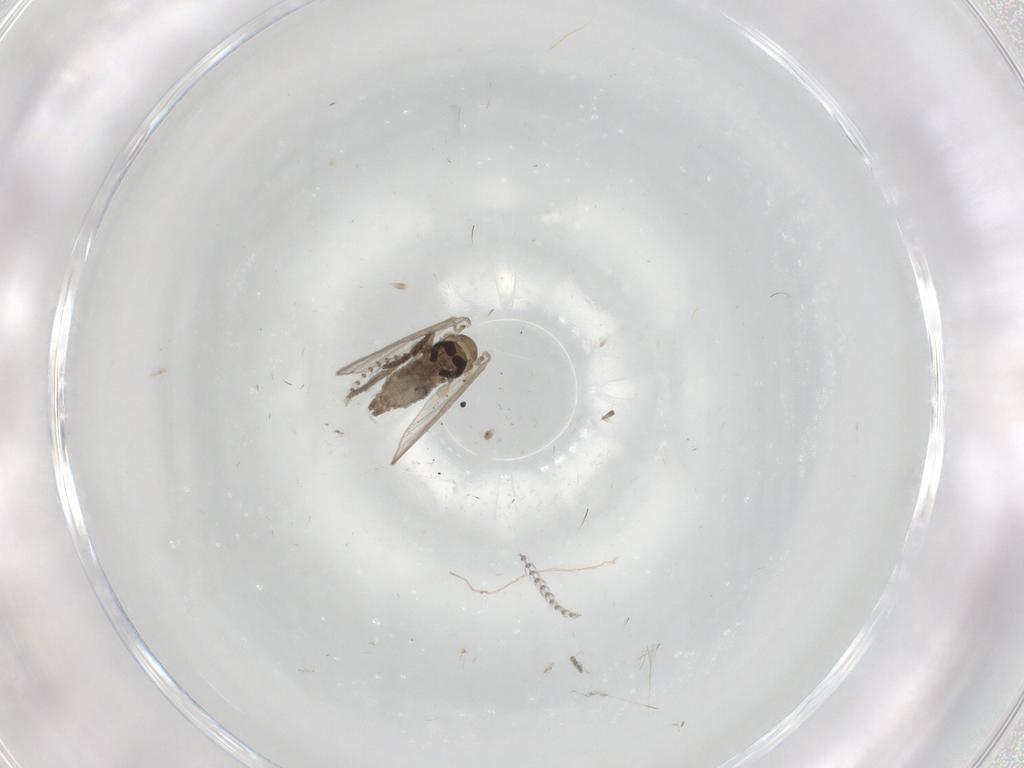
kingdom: Animalia
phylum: Arthropoda
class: Insecta
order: Diptera
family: Psychodidae
